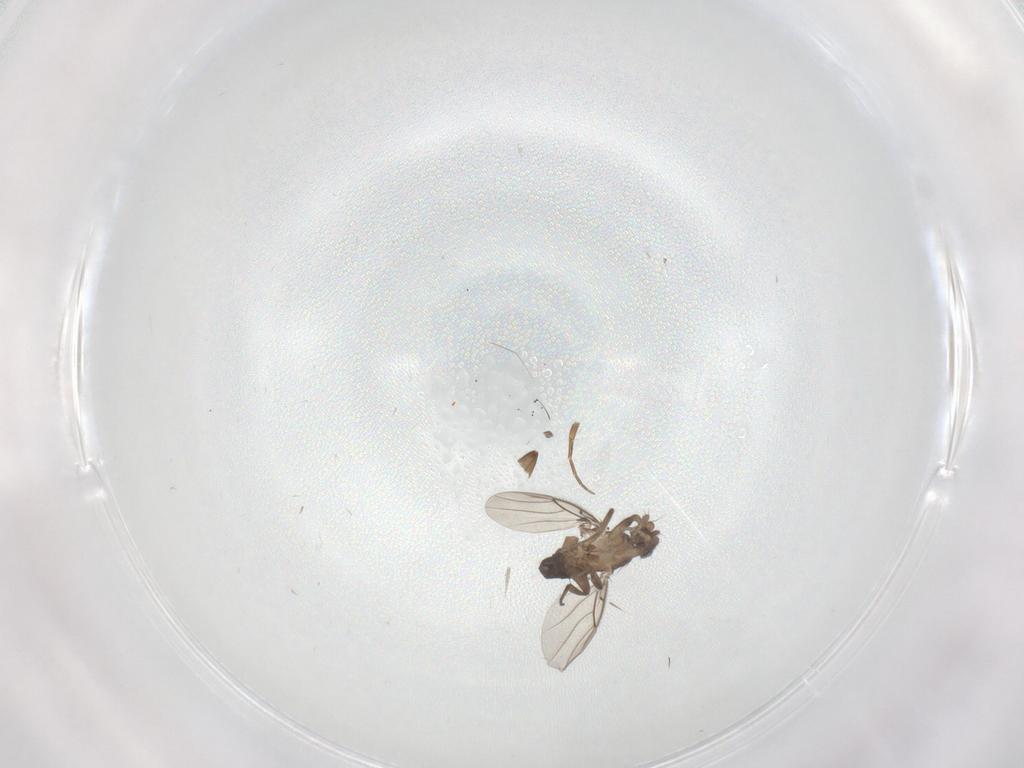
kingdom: Animalia
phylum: Arthropoda
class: Insecta
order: Diptera
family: Phoridae
